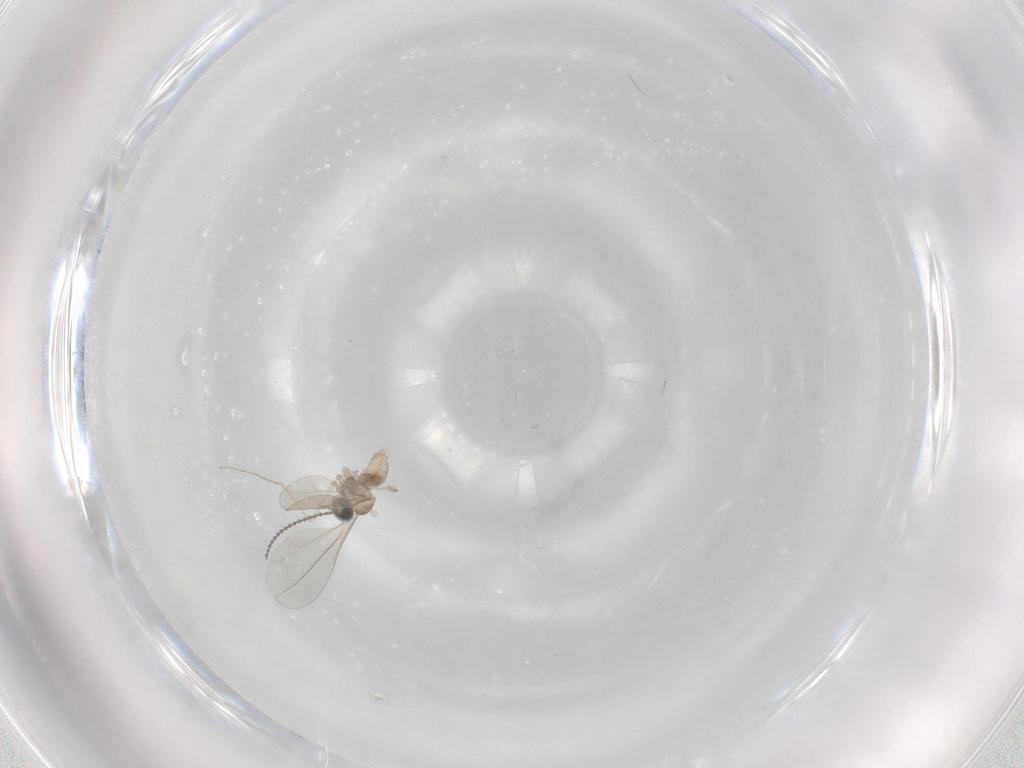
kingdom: Animalia
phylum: Arthropoda
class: Insecta
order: Diptera
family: Cecidomyiidae
